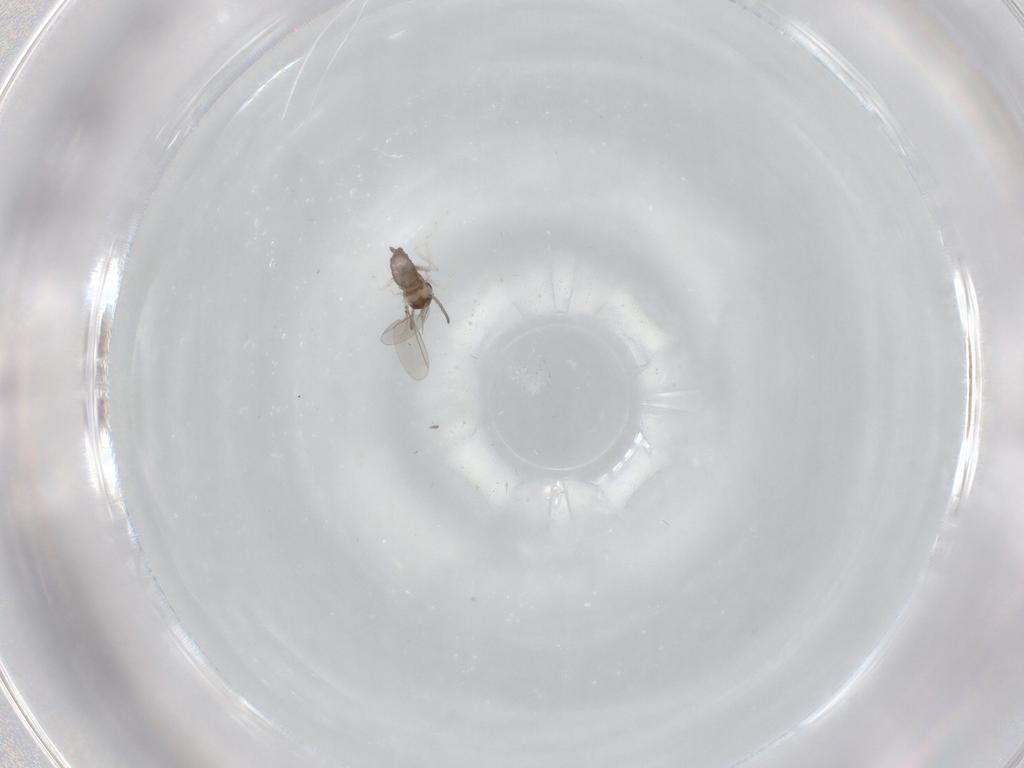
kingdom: Animalia
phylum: Arthropoda
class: Insecta
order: Diptera
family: Cecidomyiidae
